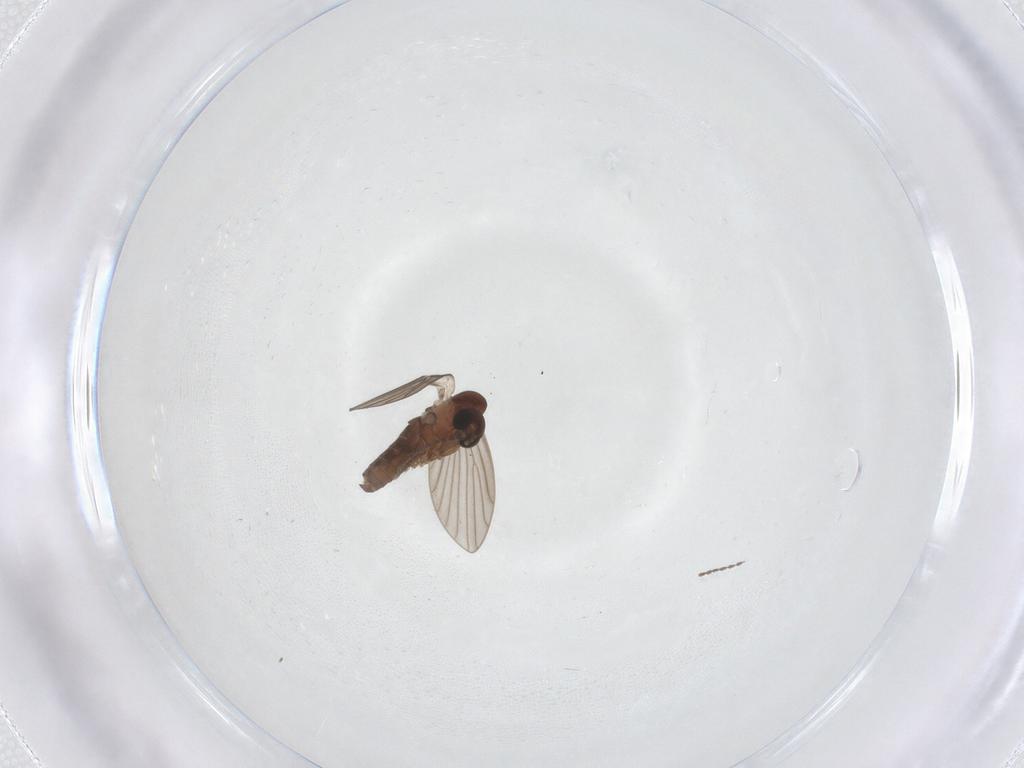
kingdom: Animalia
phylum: Arthropoda
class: Insecta
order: Diptera
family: Psychodidae
